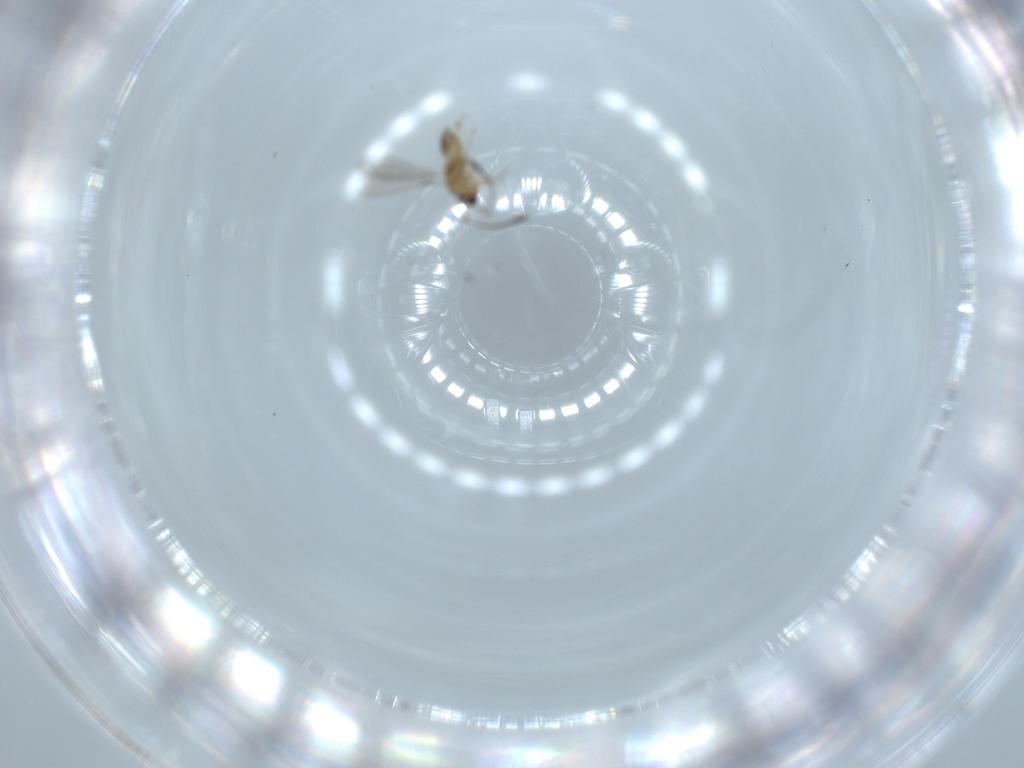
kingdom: Animalia
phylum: Arthropoda
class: Insecta
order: Hymenoptera
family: Mymaridae
